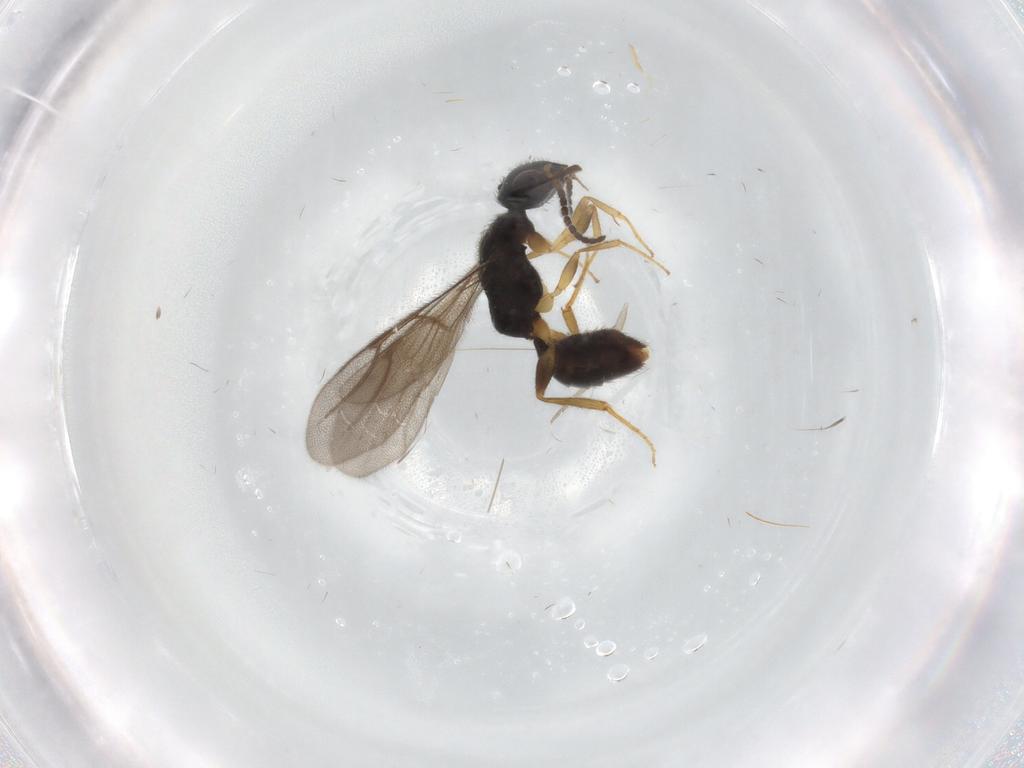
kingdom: Animalia
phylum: Arthropoda
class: Insecta
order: Hymenoptera
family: Bethylidae
